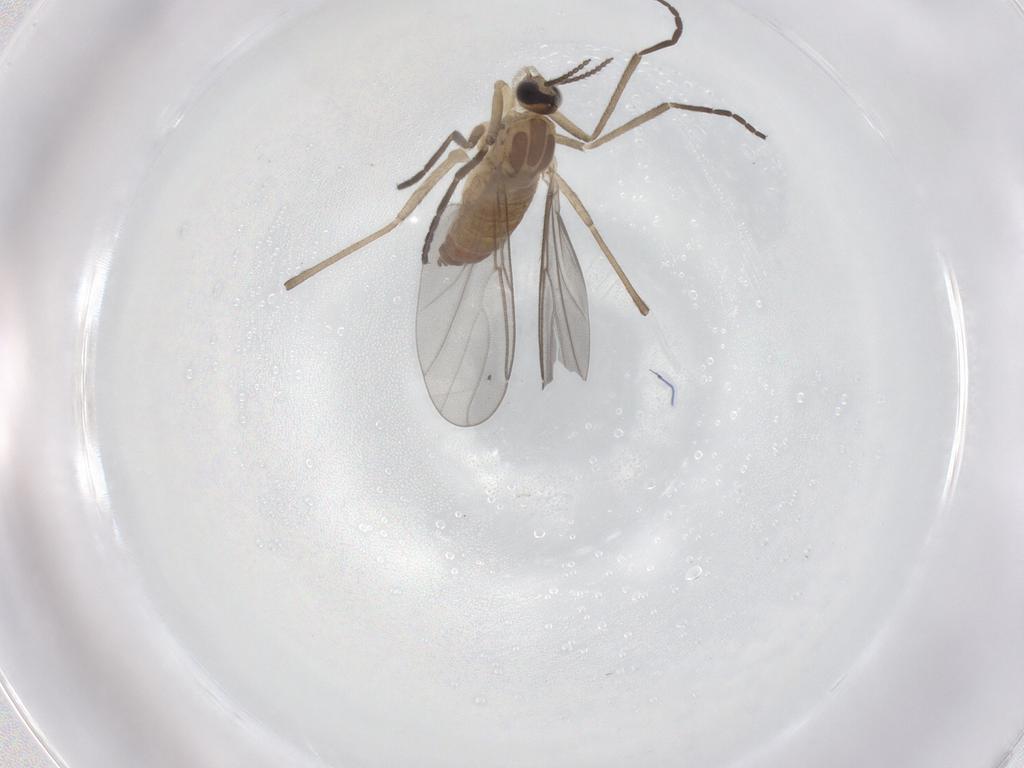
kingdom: Animalia
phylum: Arthropoda
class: Insecta
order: Diptera
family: Cecidomyiidae
